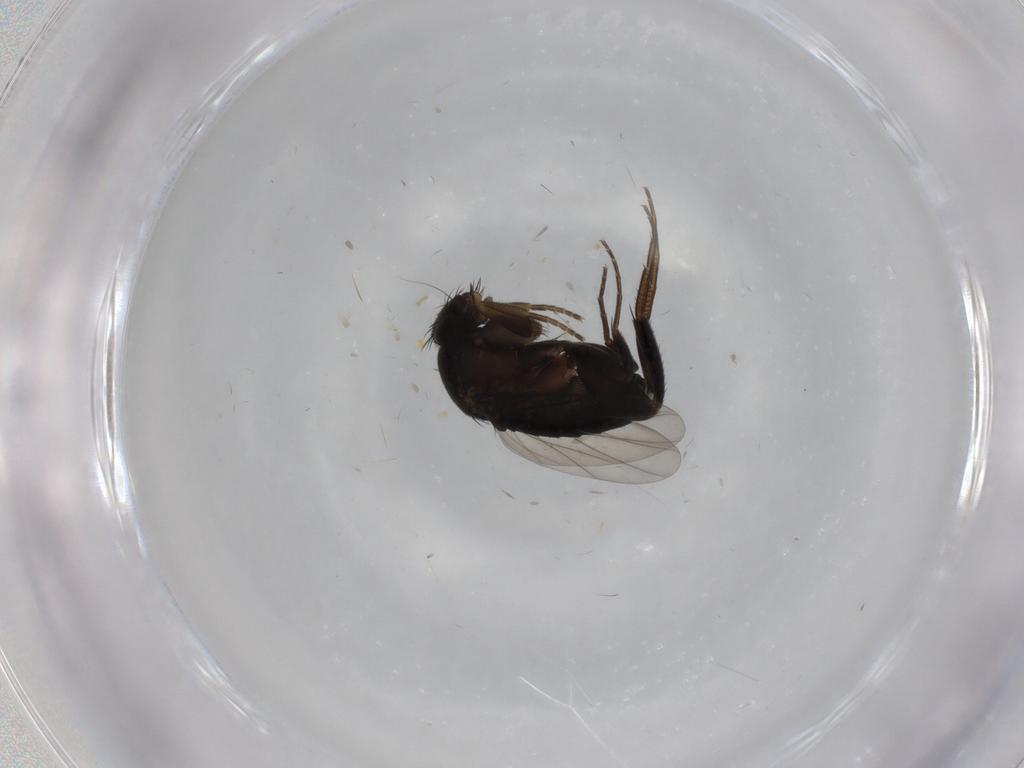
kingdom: Animalia
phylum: Arthropoda
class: Insecta
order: Diptera
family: Phoridae
